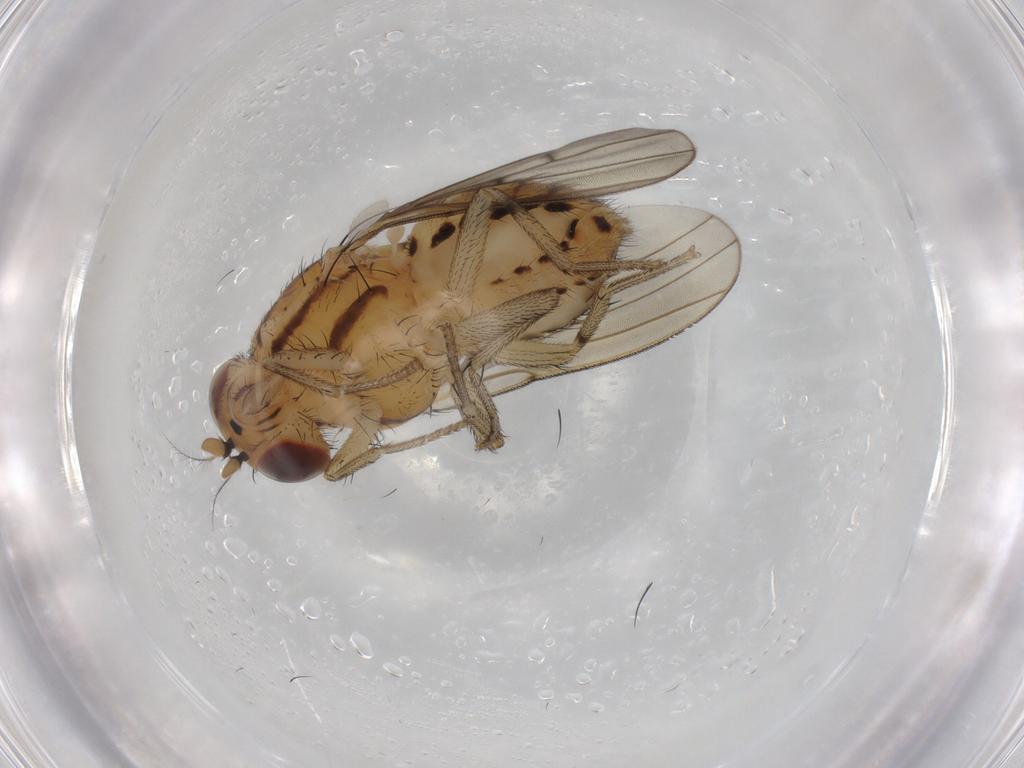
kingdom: Animalia
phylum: Arthropoda
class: Insecta
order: Diptera
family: Lauxaniidae
